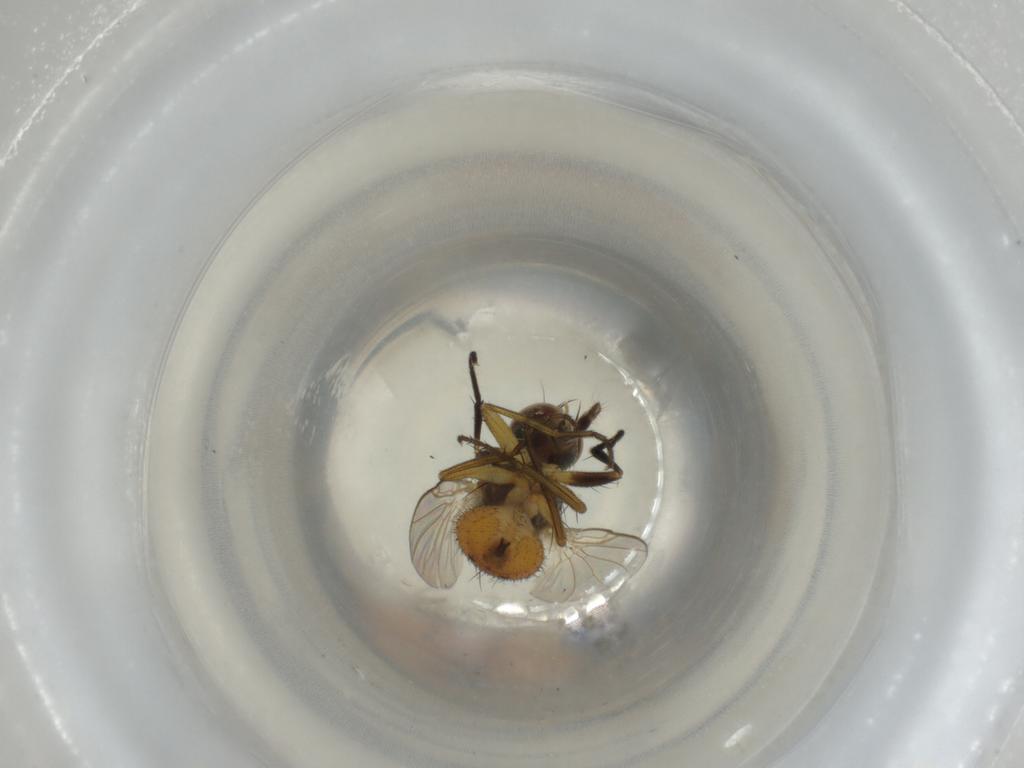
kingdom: Animalia
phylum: Arthropoda
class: Insecta
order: Diptera
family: Muscidae
